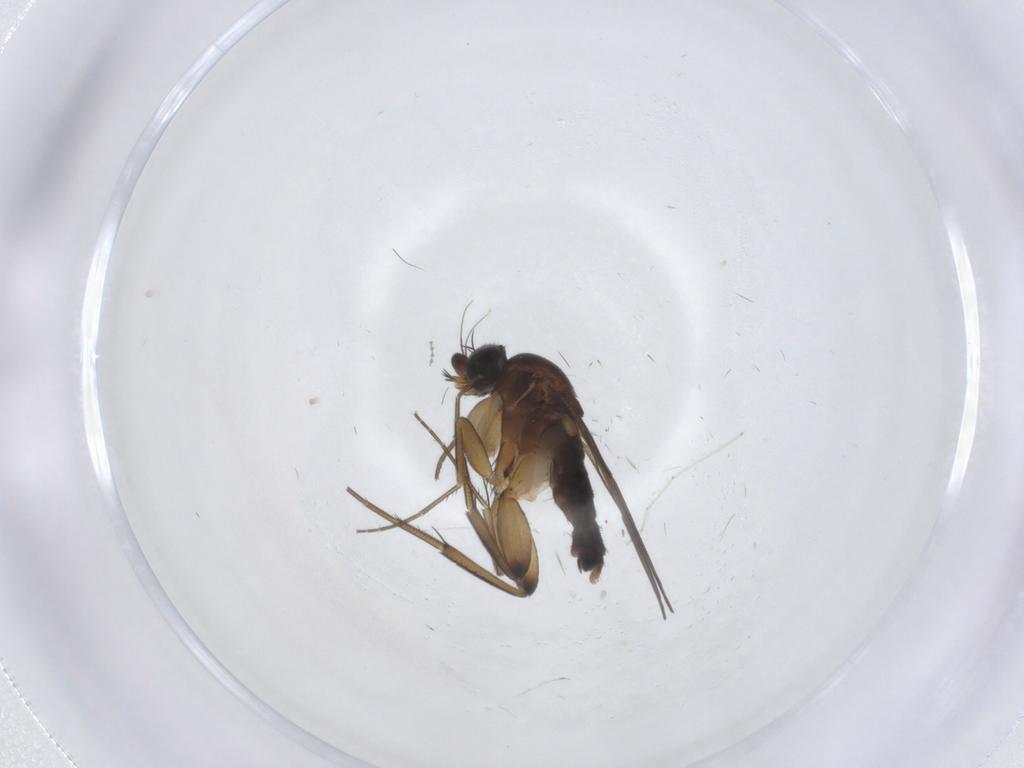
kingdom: Animalia
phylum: Arthropoda
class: Insecta
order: Diptera
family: Phoridae
